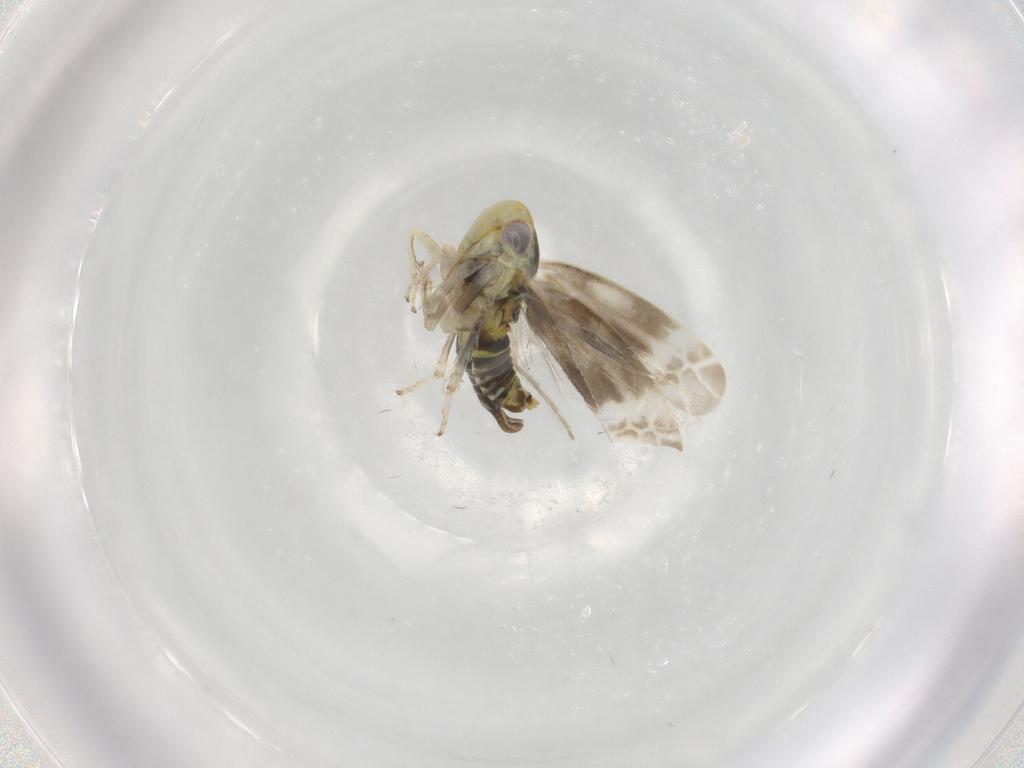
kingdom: Animalia
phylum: Arthropoda
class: Insecta
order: Hemiptera
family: Cicadellidae
